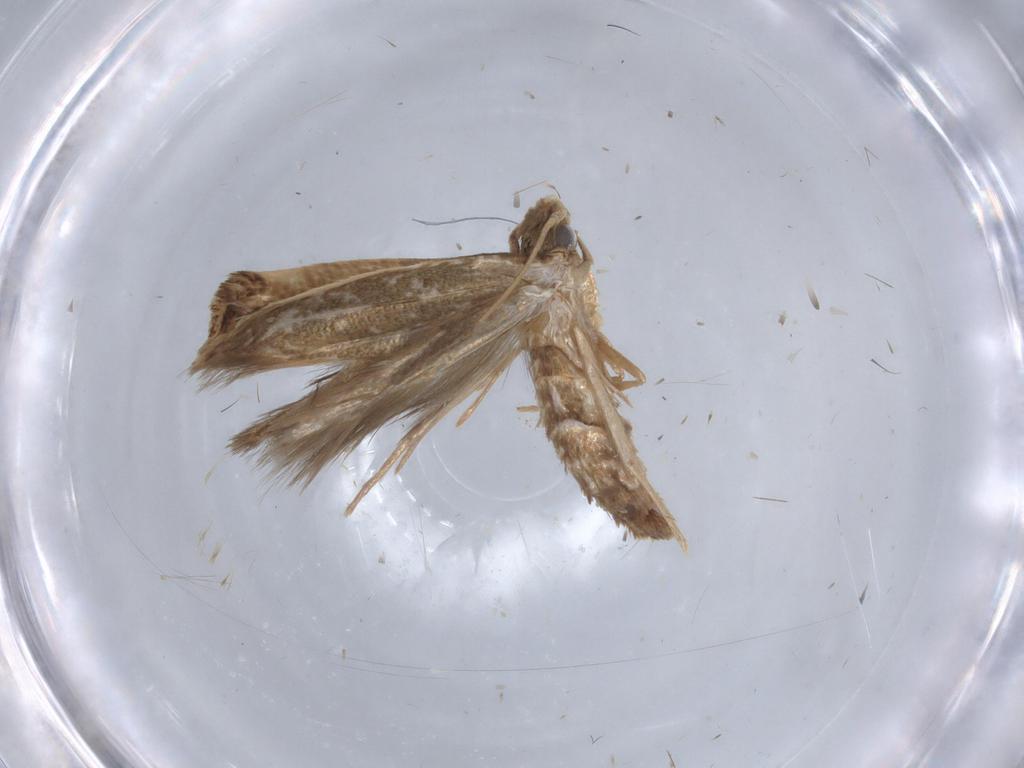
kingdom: Animalia
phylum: Arthropoda
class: Insecta
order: Lepidoptera
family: Tineidae
